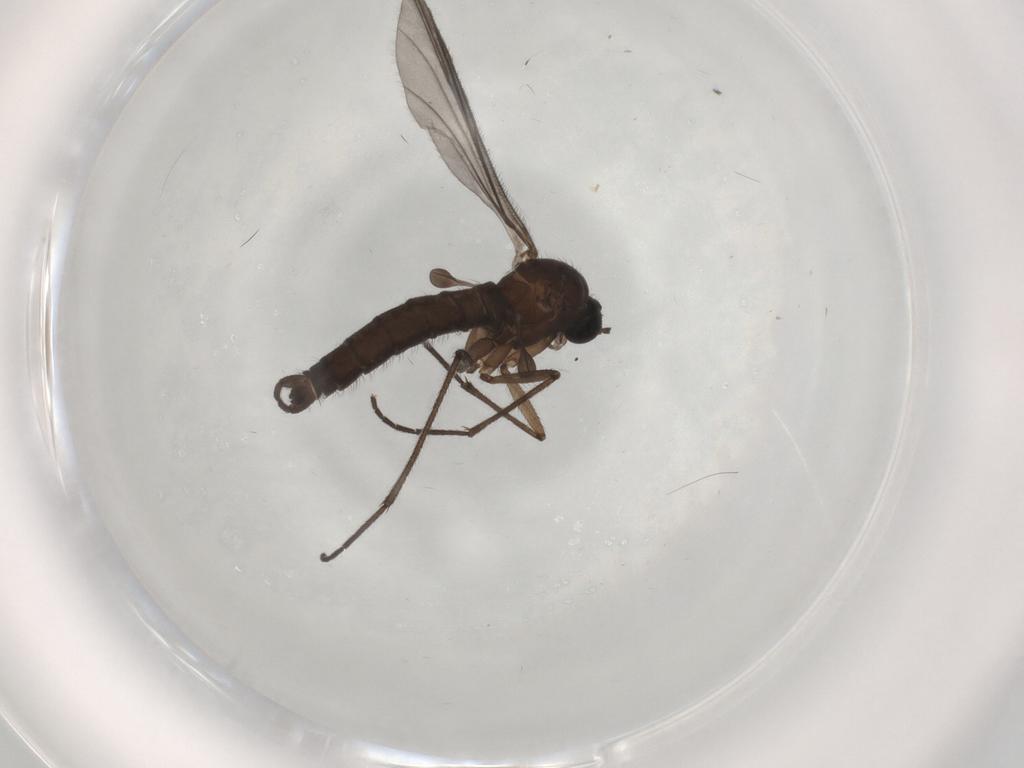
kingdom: Animalia
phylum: Arthropoda
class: Insecta
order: Diptera
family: Sciaridae
